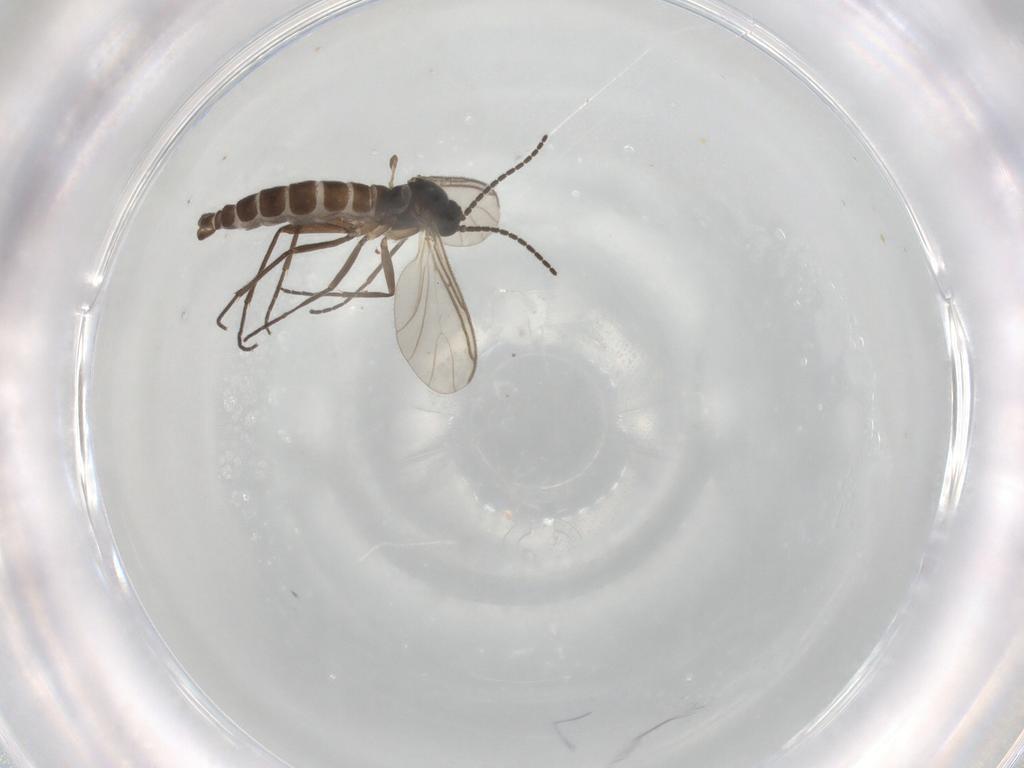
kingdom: Animalia
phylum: Arthropoda
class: Insecta
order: Diptera
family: Sciaridae
